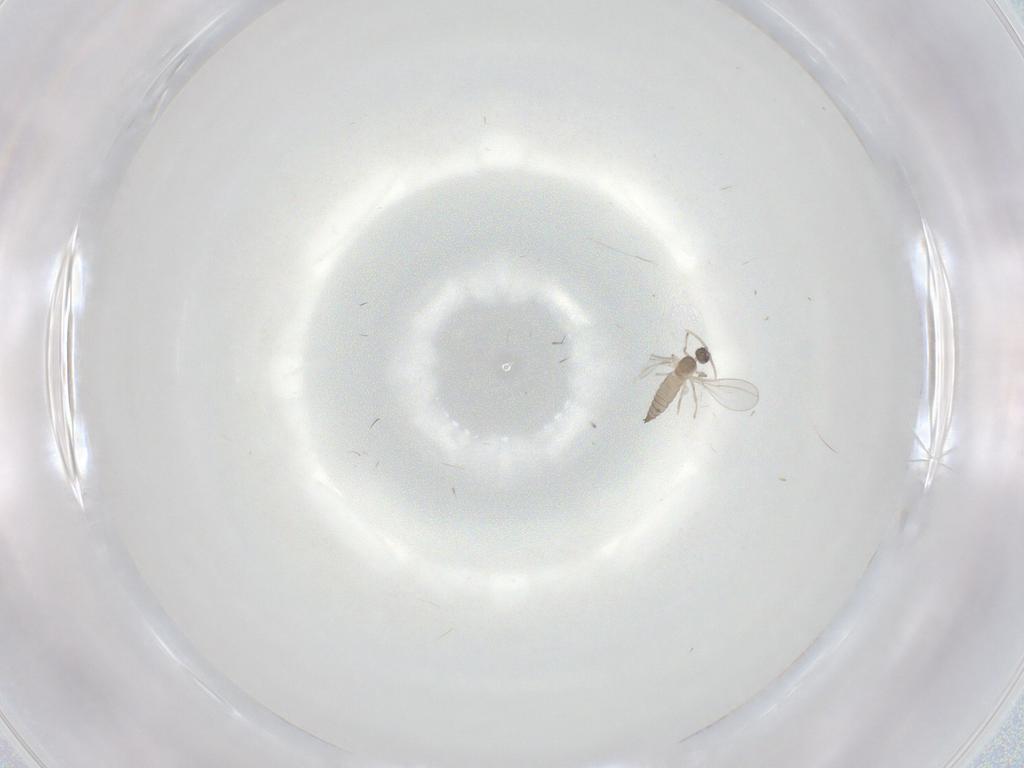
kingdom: Animalia
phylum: Arthropoda
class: Insecta
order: Diptera
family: Cecidomyiidae
